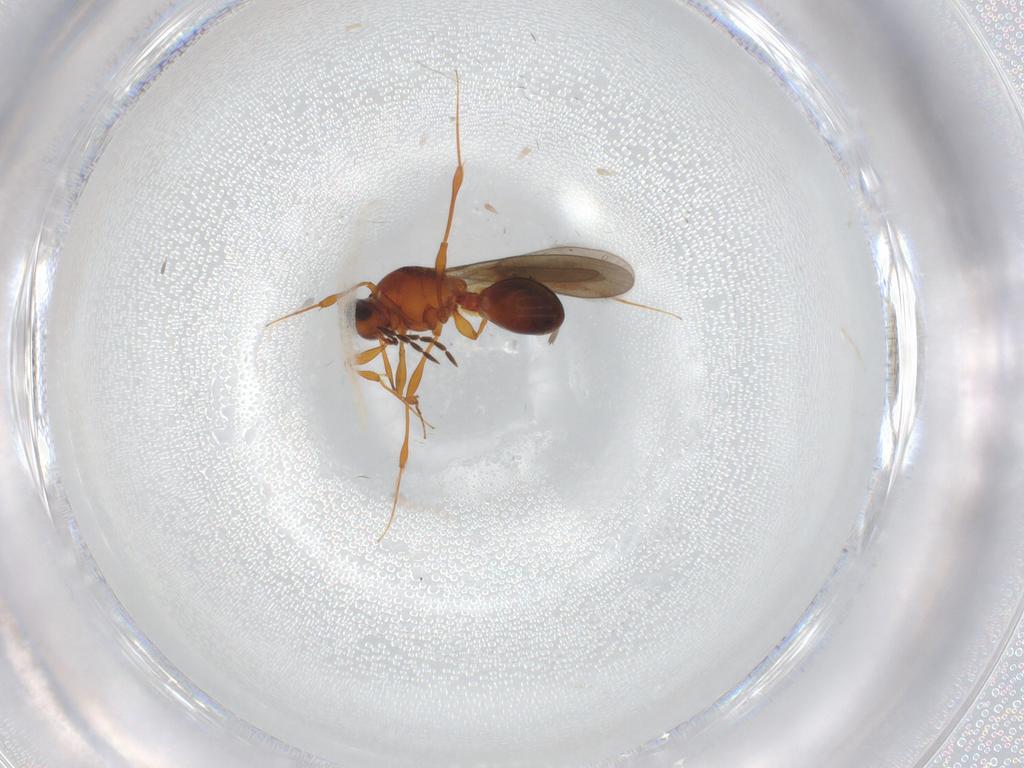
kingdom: Animalia
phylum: Arthropoda
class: Insecta
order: Hymenoptera
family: Platygastridae
